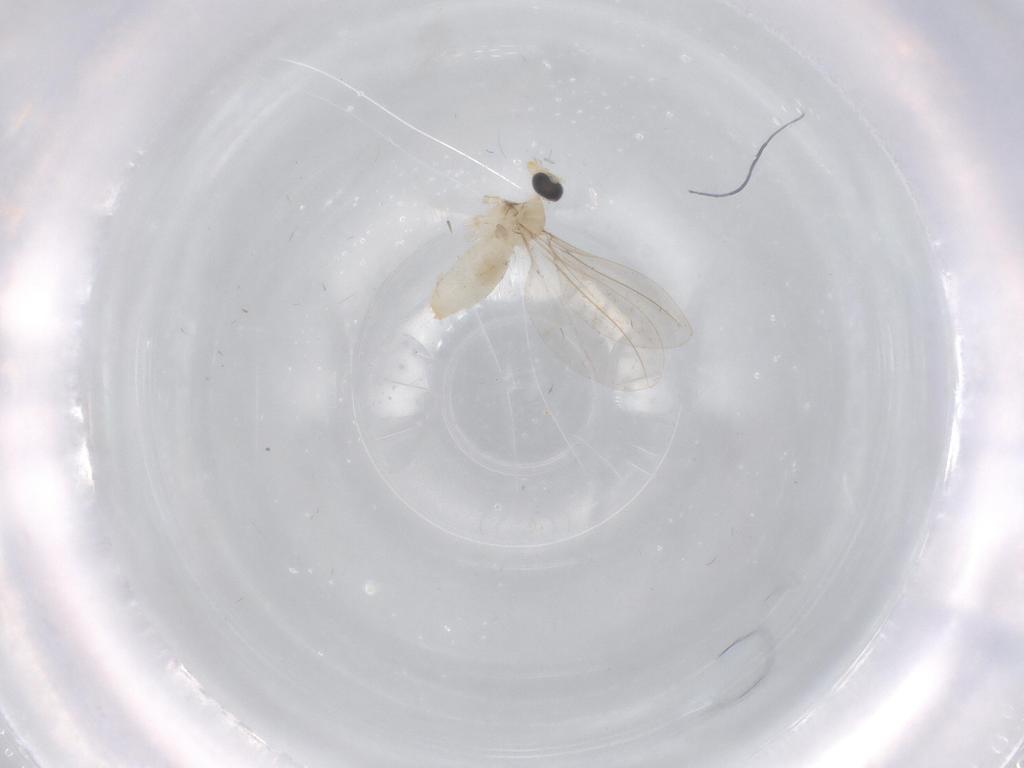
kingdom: Animalia
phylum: Arthropoda
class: Insecta
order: Diptera
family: Cecidomyiidae
